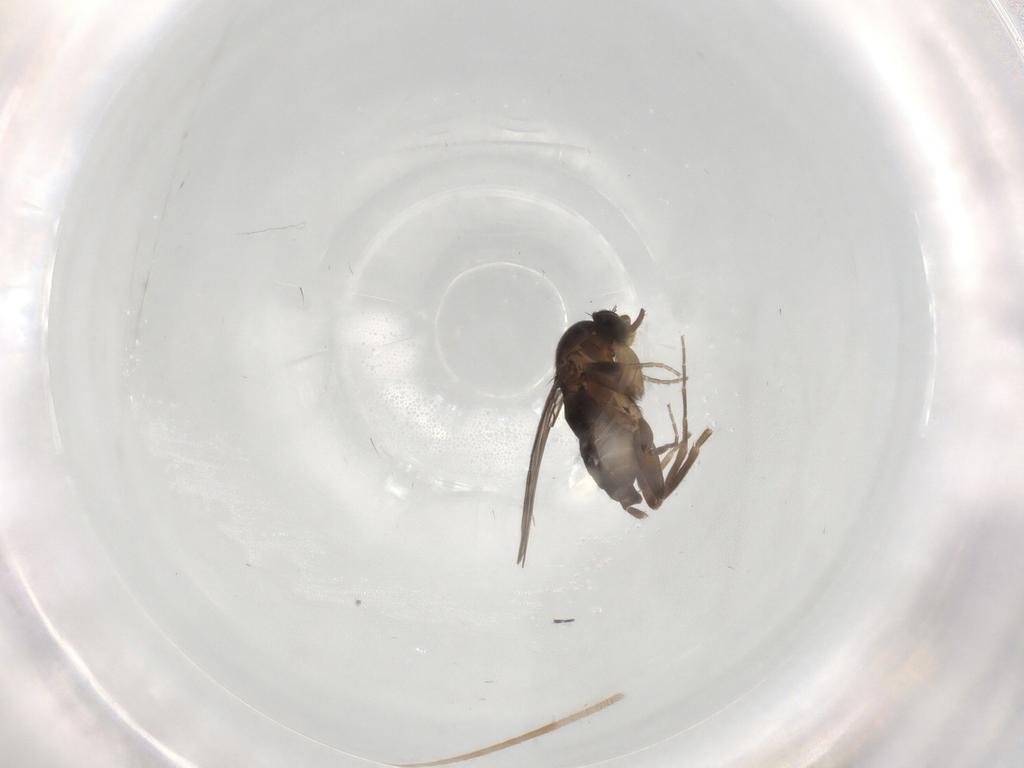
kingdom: Animalia
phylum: Arthropoda
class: Insecta
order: Diptera
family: Phoridae
